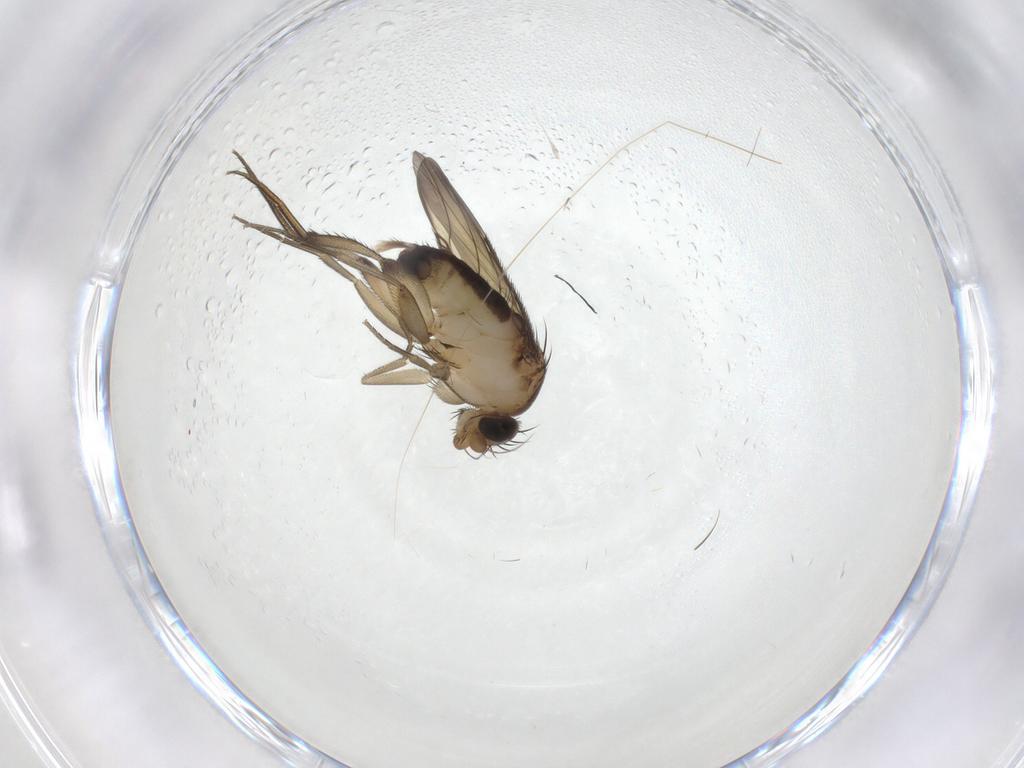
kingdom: Animalia
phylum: Arthropoda
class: Insecta
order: Diptera
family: Phoridae
